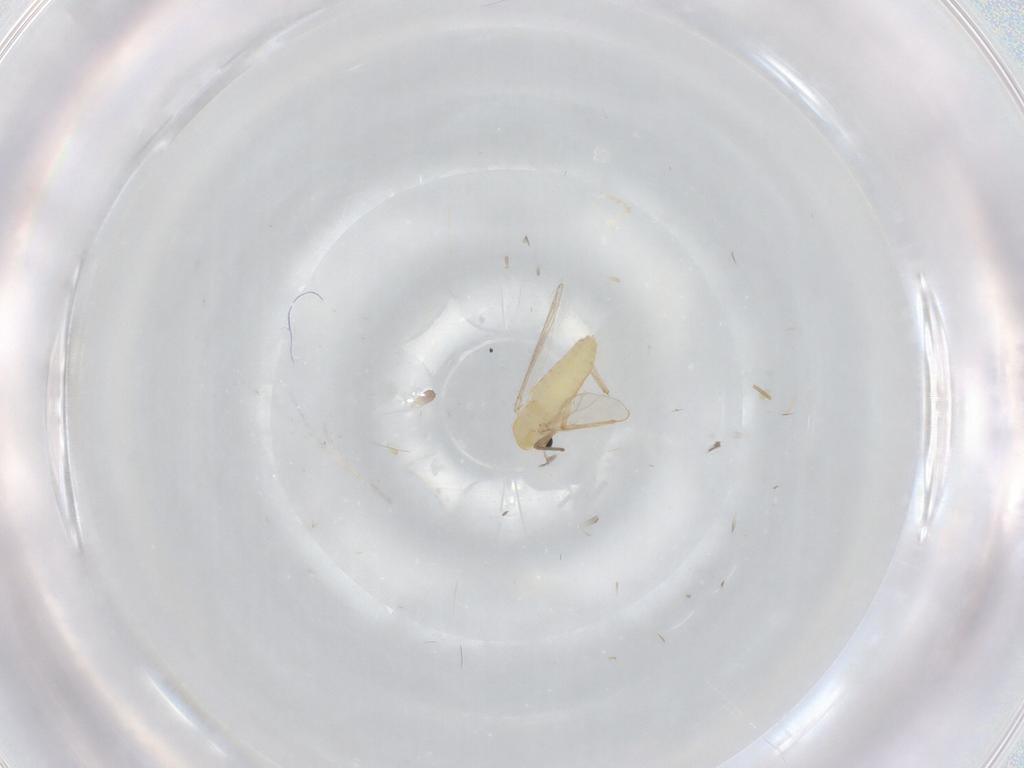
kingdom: Animalia
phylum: Arthropoda
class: Insecta
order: Diptera
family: Chironomidae
